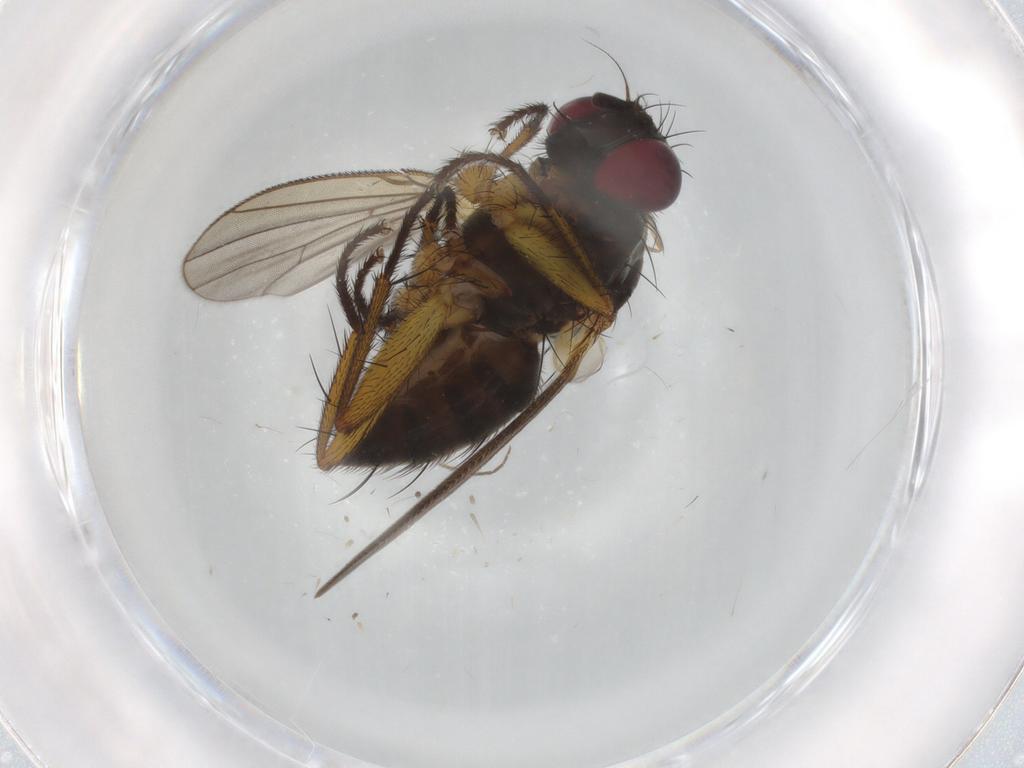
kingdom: Animalia
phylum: Arthropoda
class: Insecta
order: Diptera
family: Muscidae
